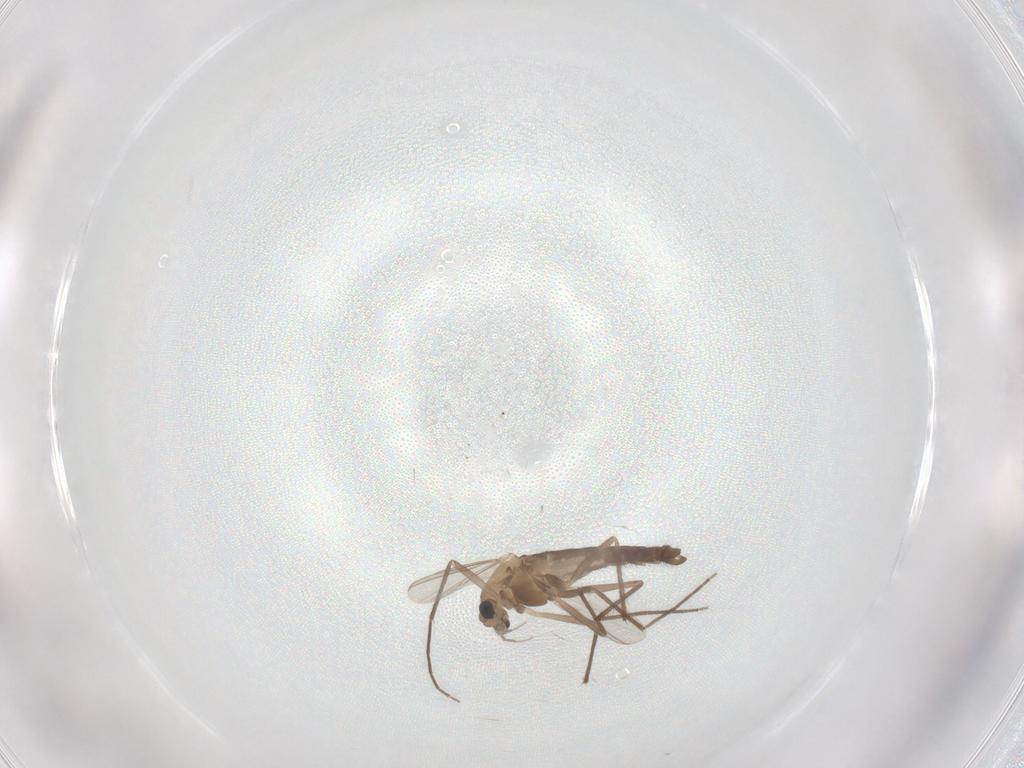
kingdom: Animalia
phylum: Arthropoda
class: Insecta
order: Diptera
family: Chironomidae
